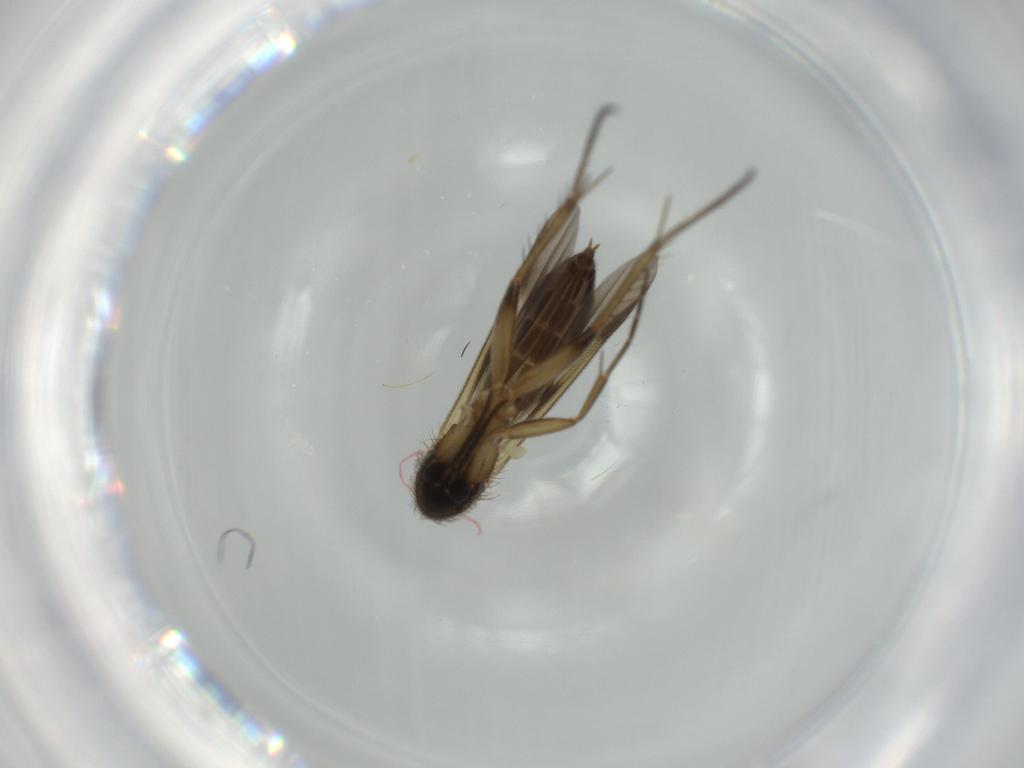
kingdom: Animalia
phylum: Arthropoda
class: Insecta
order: Diptera
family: Mycetophilidae
